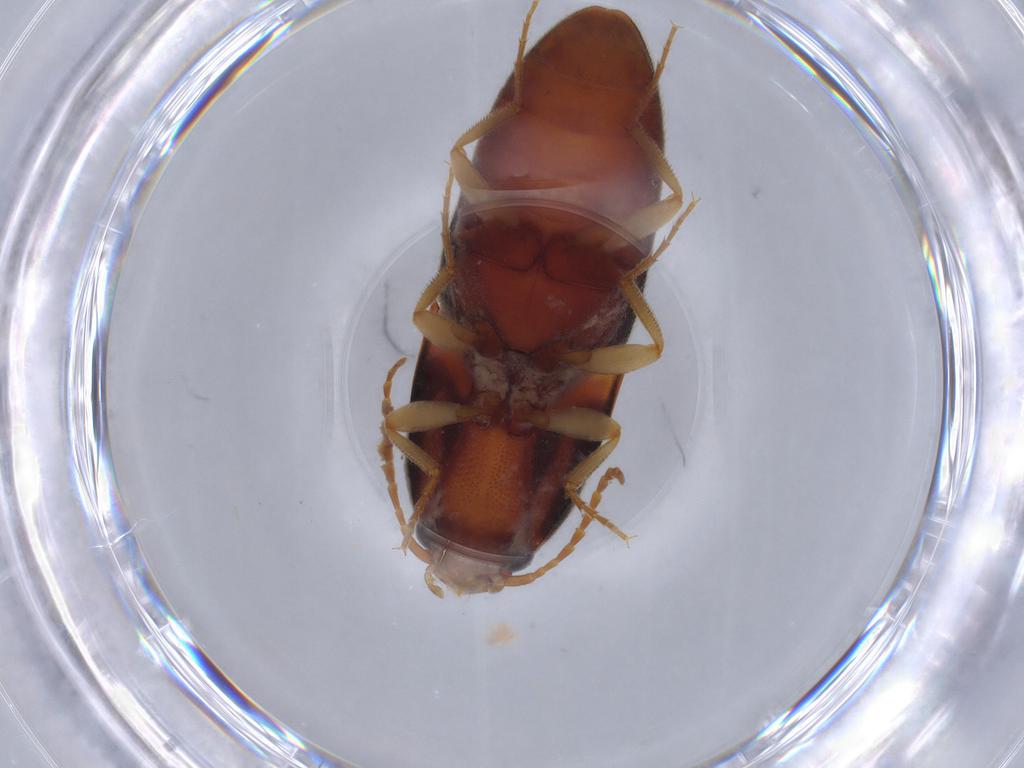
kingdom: Animalia
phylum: Arthropoda
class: Insecta
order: Coleoptera
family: Elateridae
